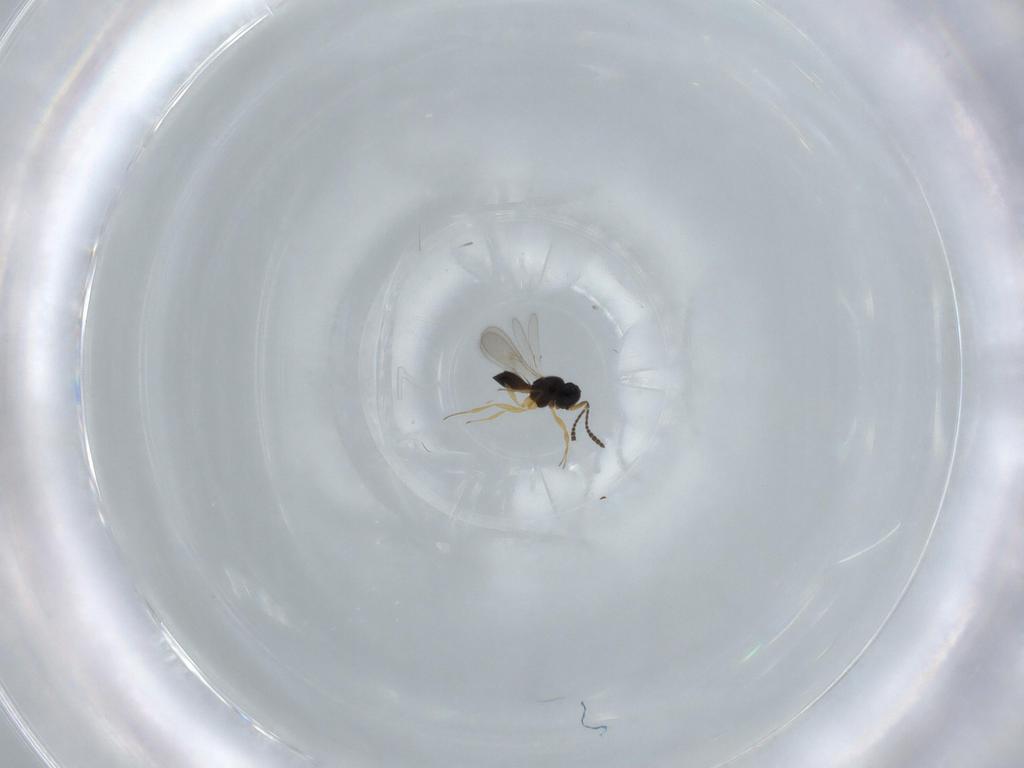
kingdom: Animalia
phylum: Arthropoda
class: Insecta
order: Hymenoptera
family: Scelionidae
